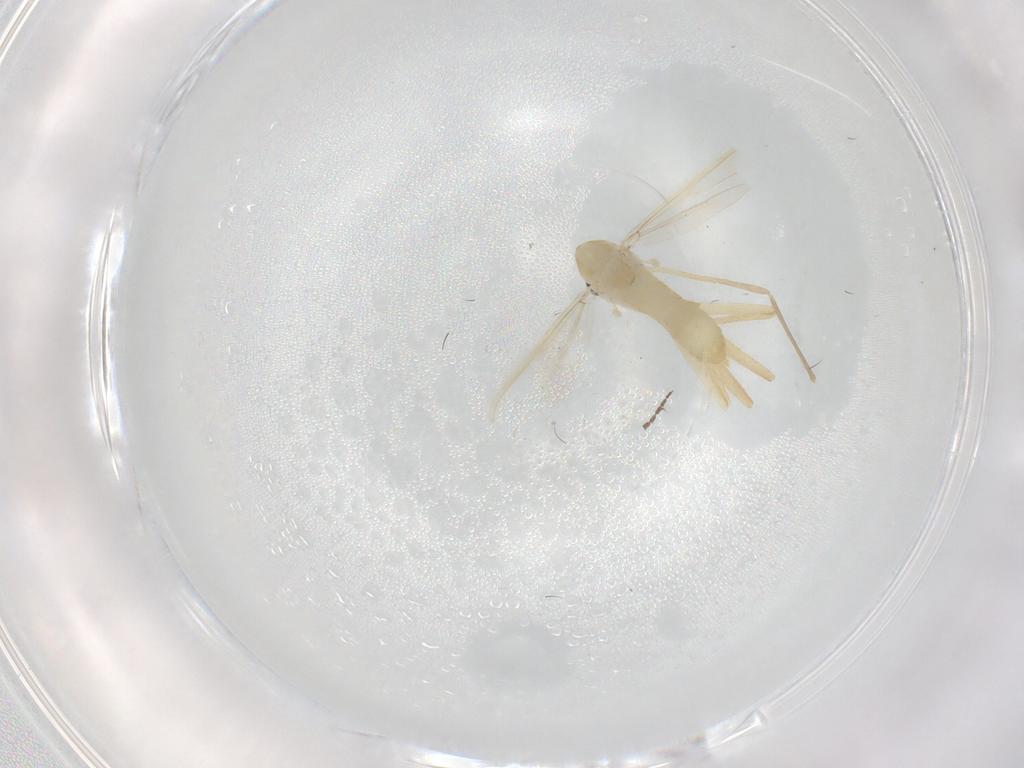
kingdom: Animalia
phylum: Arthropoda
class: Insecta
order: Diptera
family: Chironomidae
